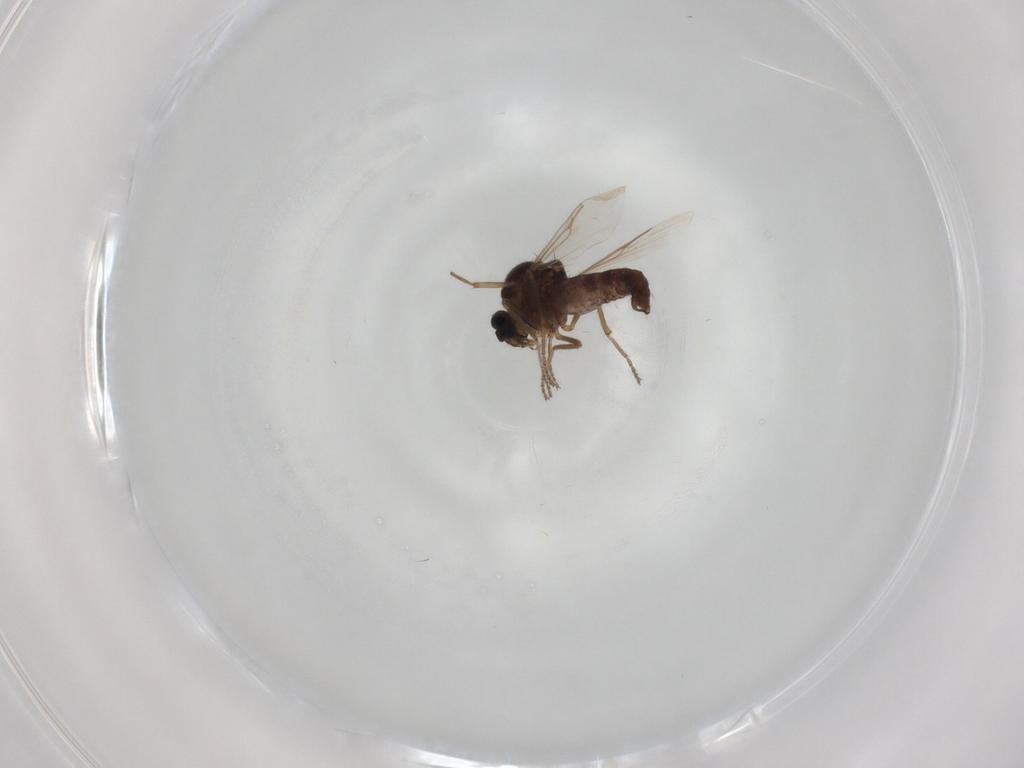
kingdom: Animalia
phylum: Arthropoda
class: Insecta
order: Diptera
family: Ceratopogonidae
